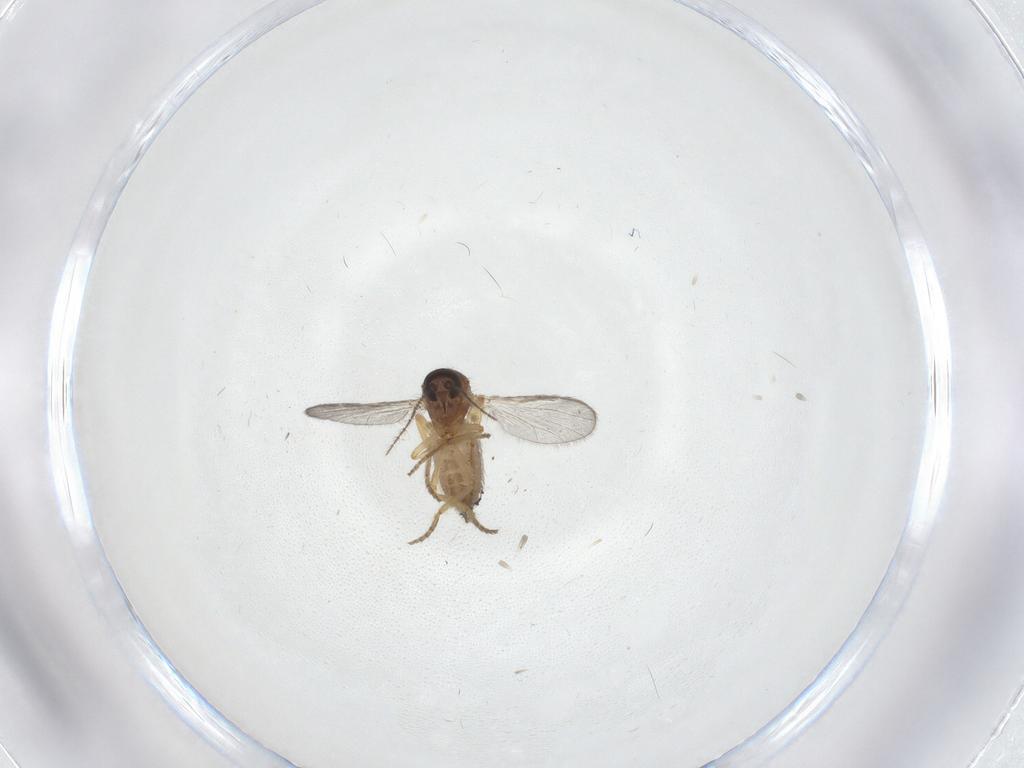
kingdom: Animalia
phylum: Arthropoda
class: Insecta
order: Diptera
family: Ceratopogonidae
